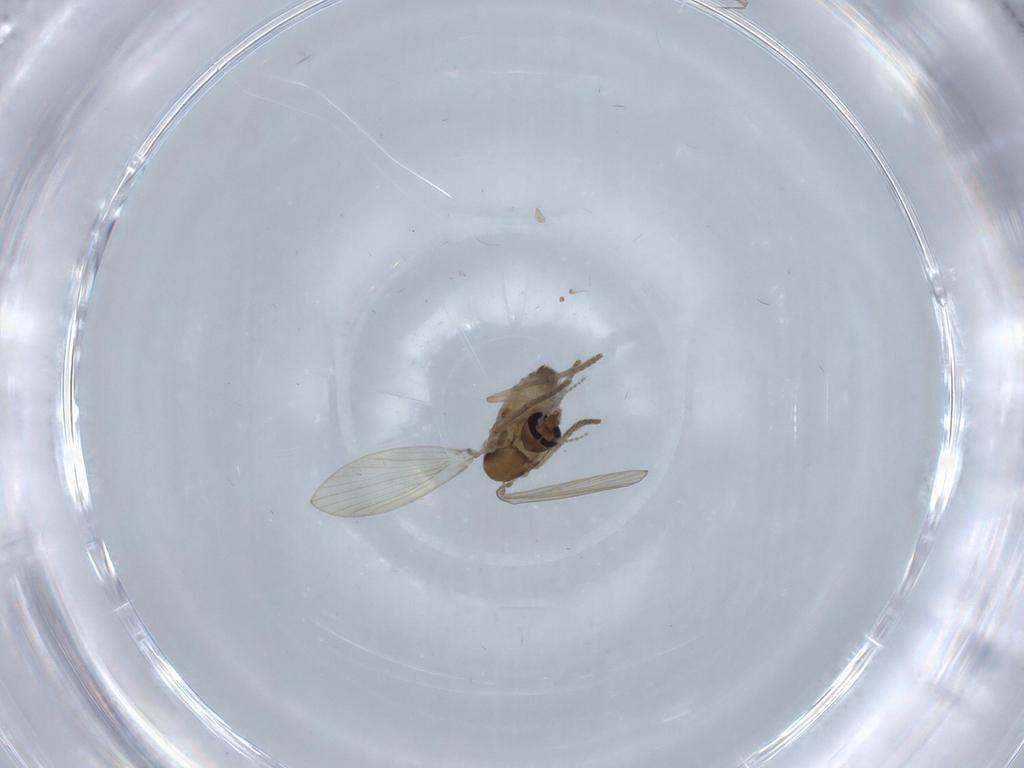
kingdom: Animalia
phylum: Arthropoda
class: Insecta
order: Diptera
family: Psychodidae
